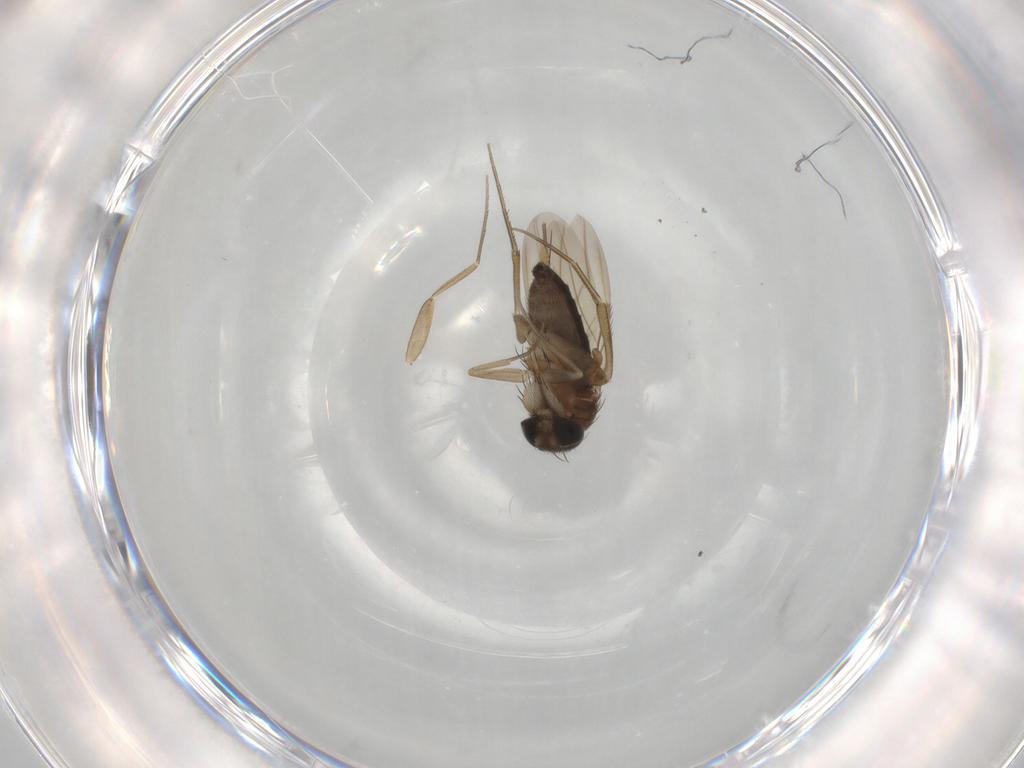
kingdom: Animalia
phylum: Arthropoda
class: Insecta
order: Diptera
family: Phoridae
